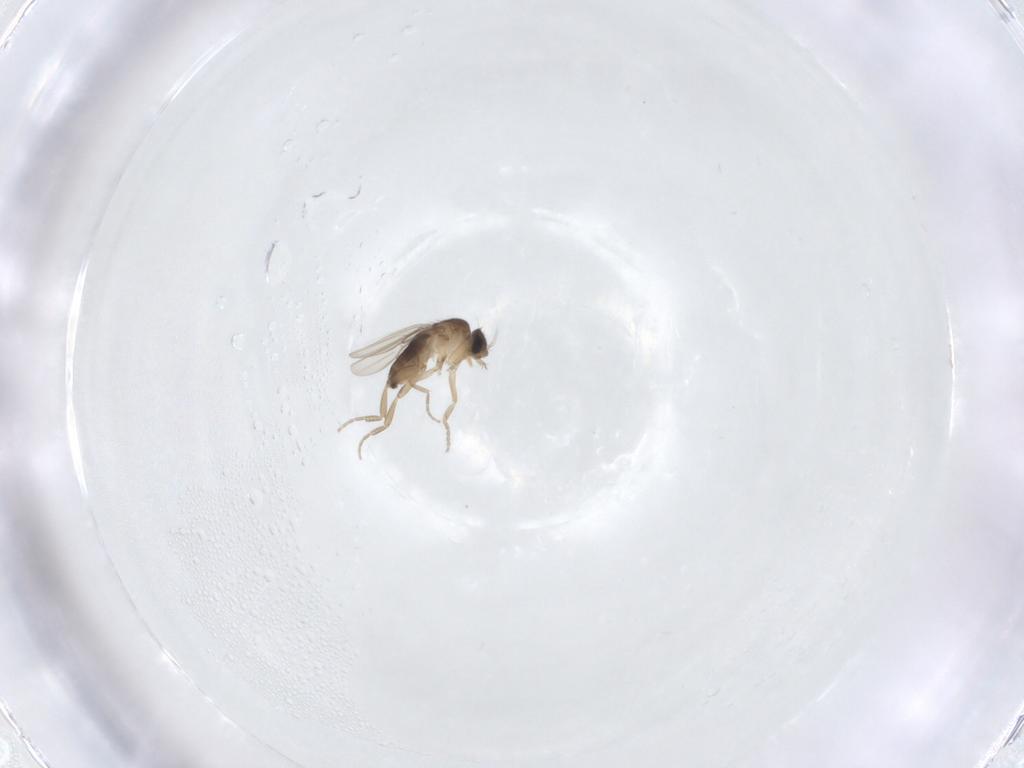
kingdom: Animalia
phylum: Arthropoda
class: Insecta
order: Diptera
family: Phoridae
